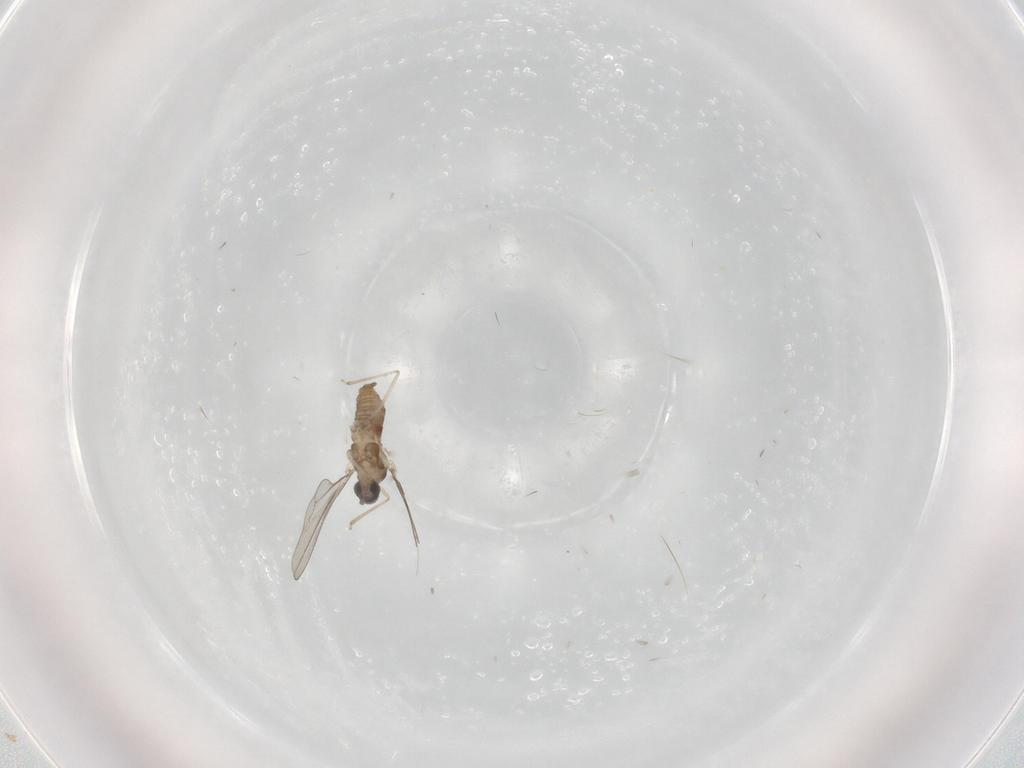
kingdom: Animalia
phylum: Arthropoda
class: Insecta
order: Diptera
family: Cecidomyiidae
